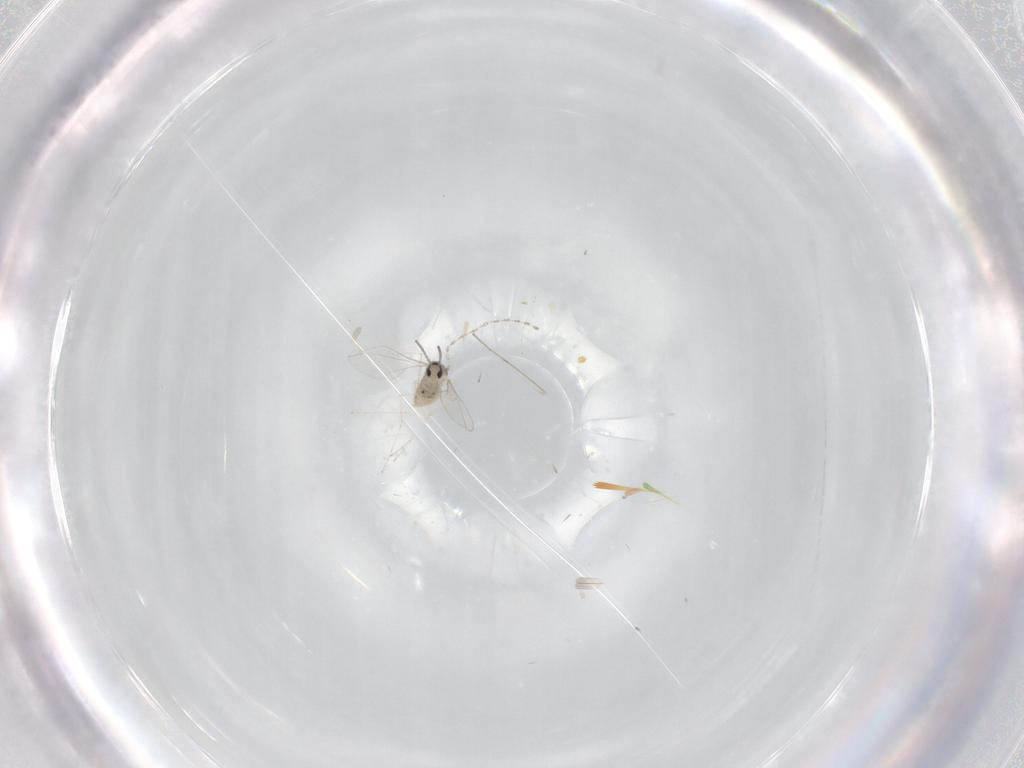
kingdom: Animalia
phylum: Arthropoda
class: Insecta
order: Diptera
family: Cecidomyiidae
